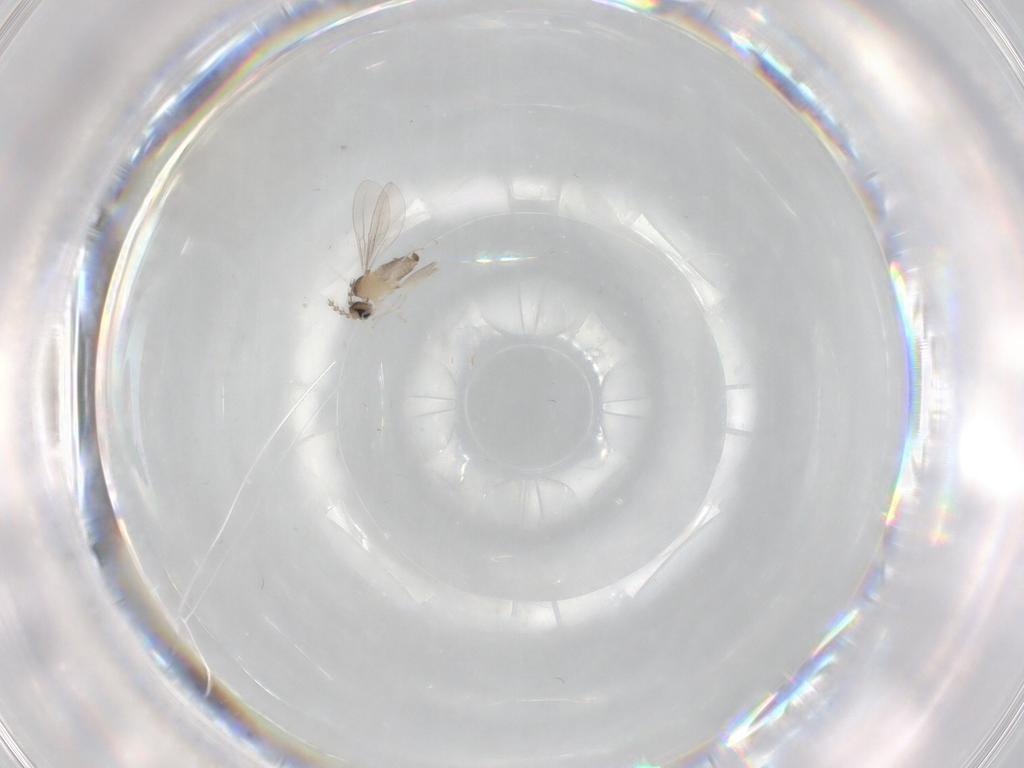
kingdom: Animalia
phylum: Arthropoda
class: Insecta
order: Diptera
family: Cecidomyiidae
